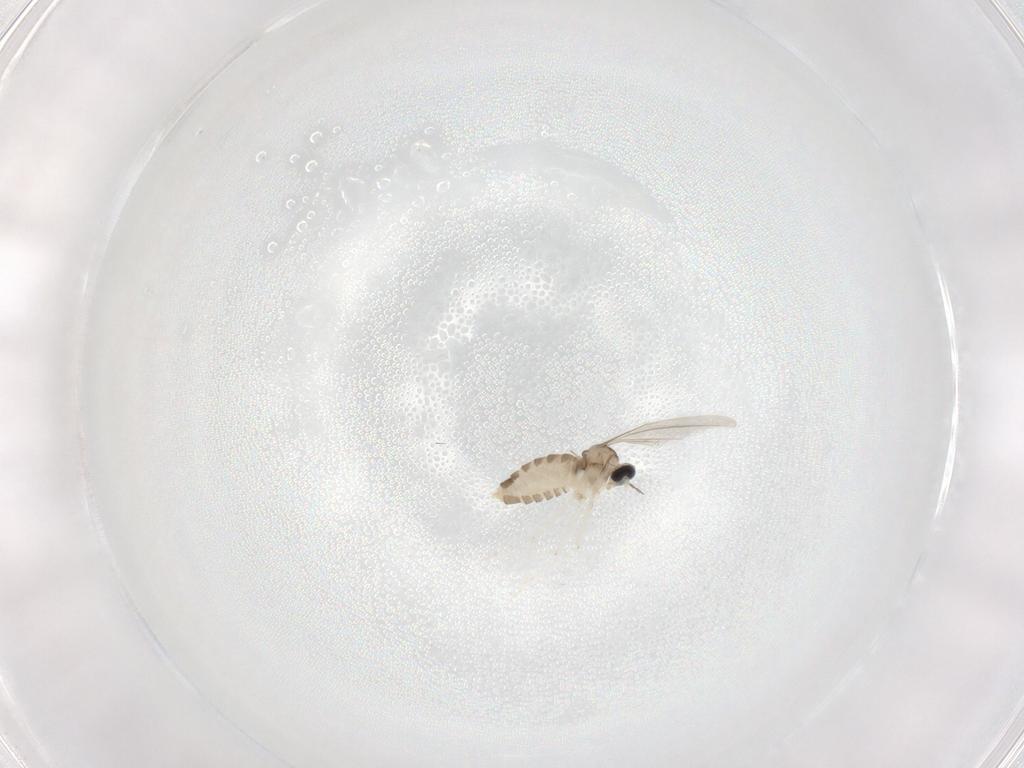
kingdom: Animalia
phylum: Arthropoda
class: Insecta
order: Diptera
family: Cecidomyiidae
